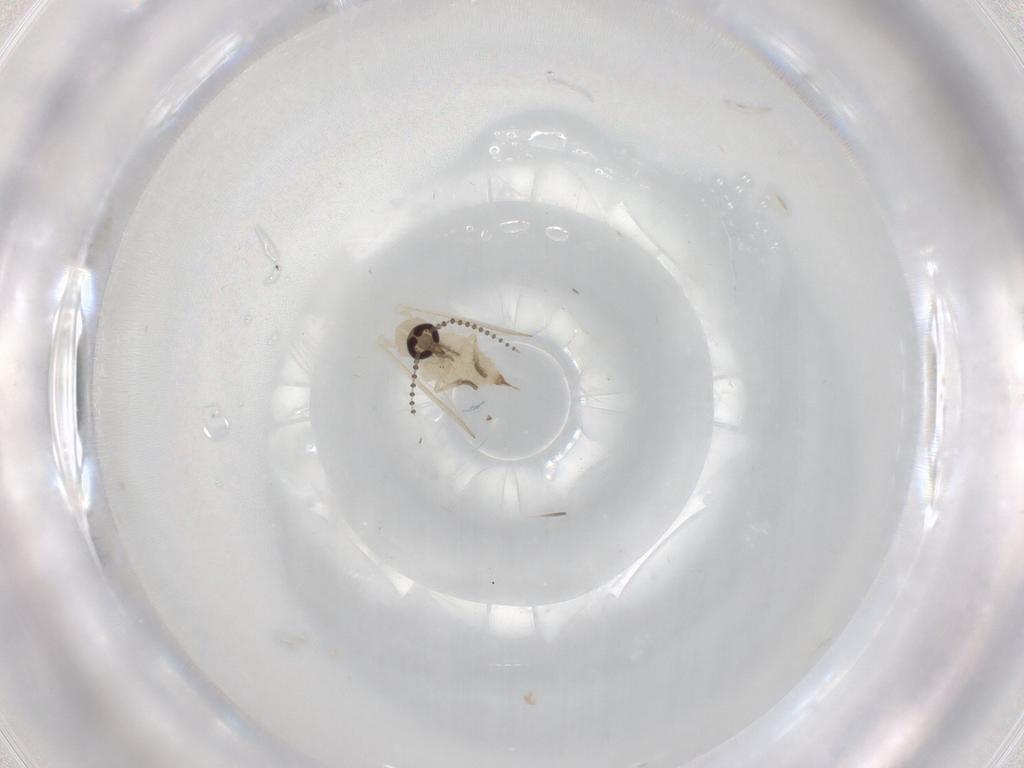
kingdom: Animalia
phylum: Arthropoda
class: Insecta
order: Diptera
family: Psychodidae
